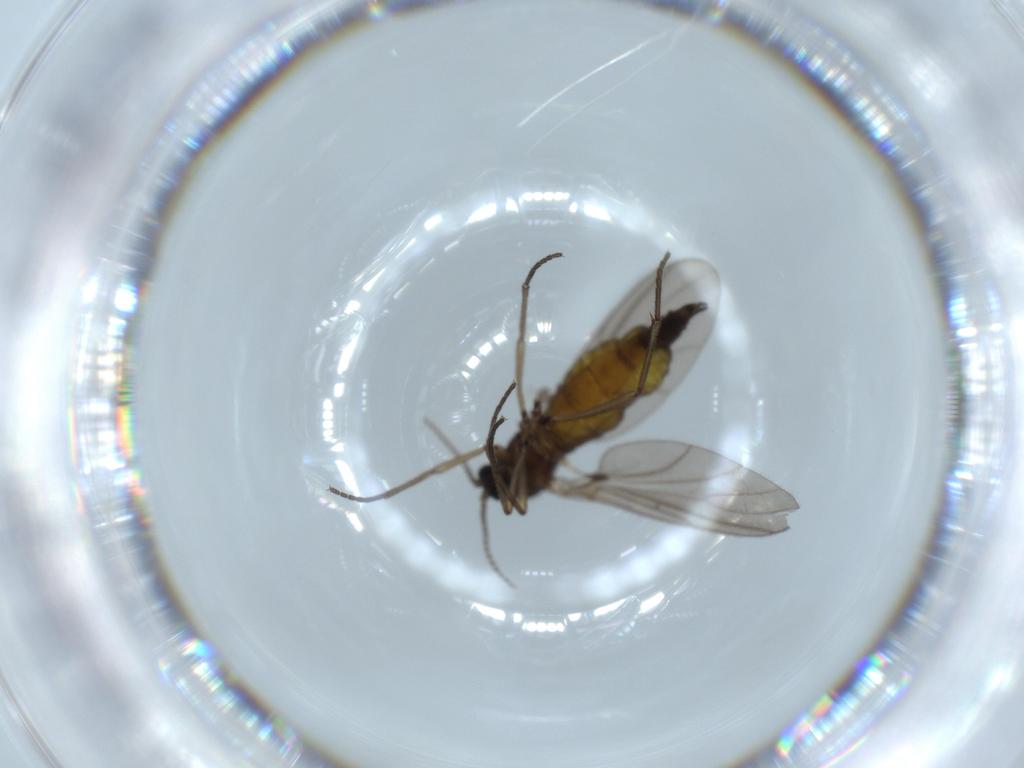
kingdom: Animalia
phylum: Arthropoda
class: Insecta
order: Diptera
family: Sciaridae
